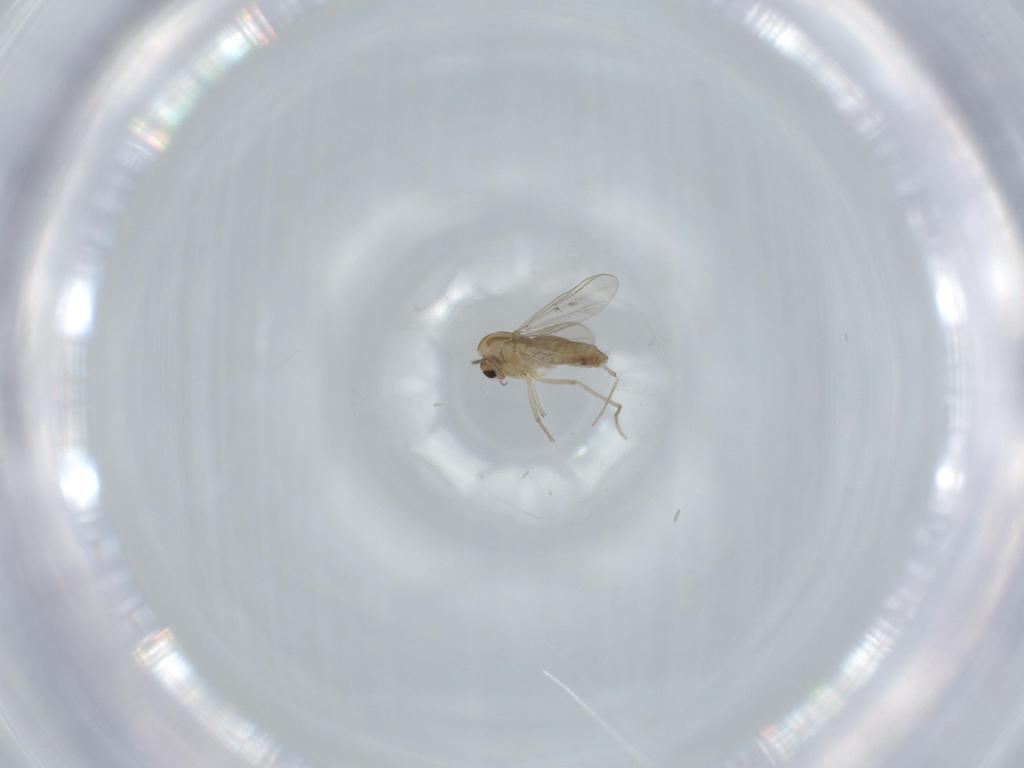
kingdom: Animalia
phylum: Arthropoda
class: Insecta
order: Diptera
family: Chironomidae
